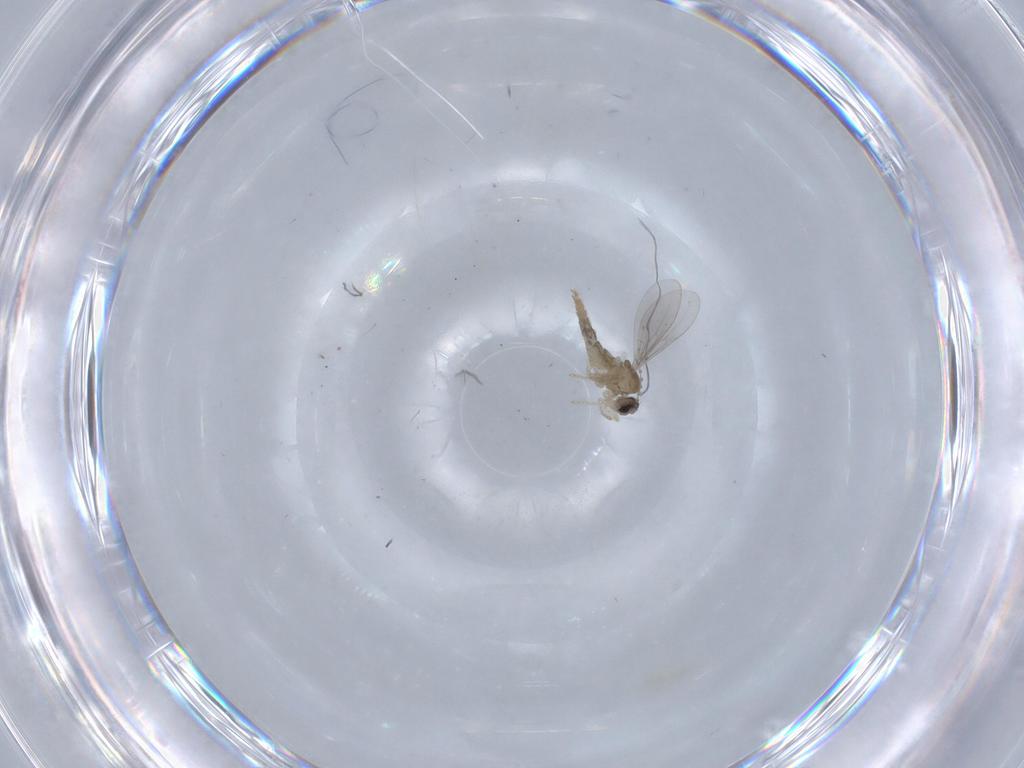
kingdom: Animalia
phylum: Arthropoda
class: Insecta
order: Diptera
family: Cecidomyiidae
